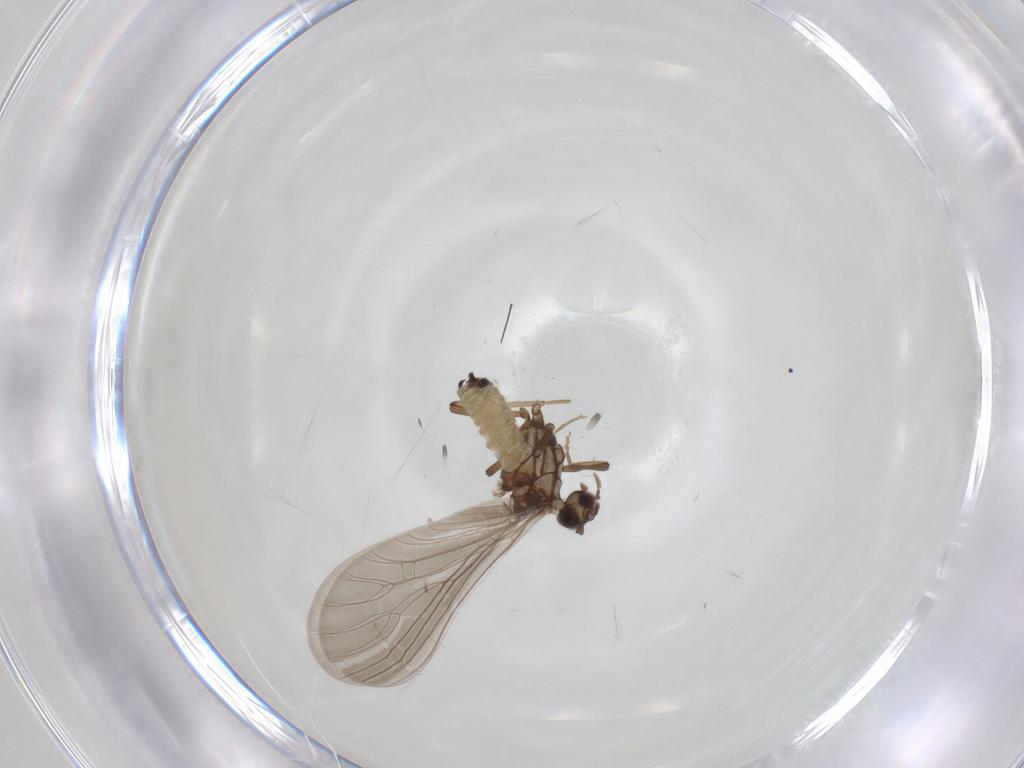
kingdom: Animalia
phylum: Arthropoda
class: Insecta
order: Neuroptera
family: Coniopterygidae
